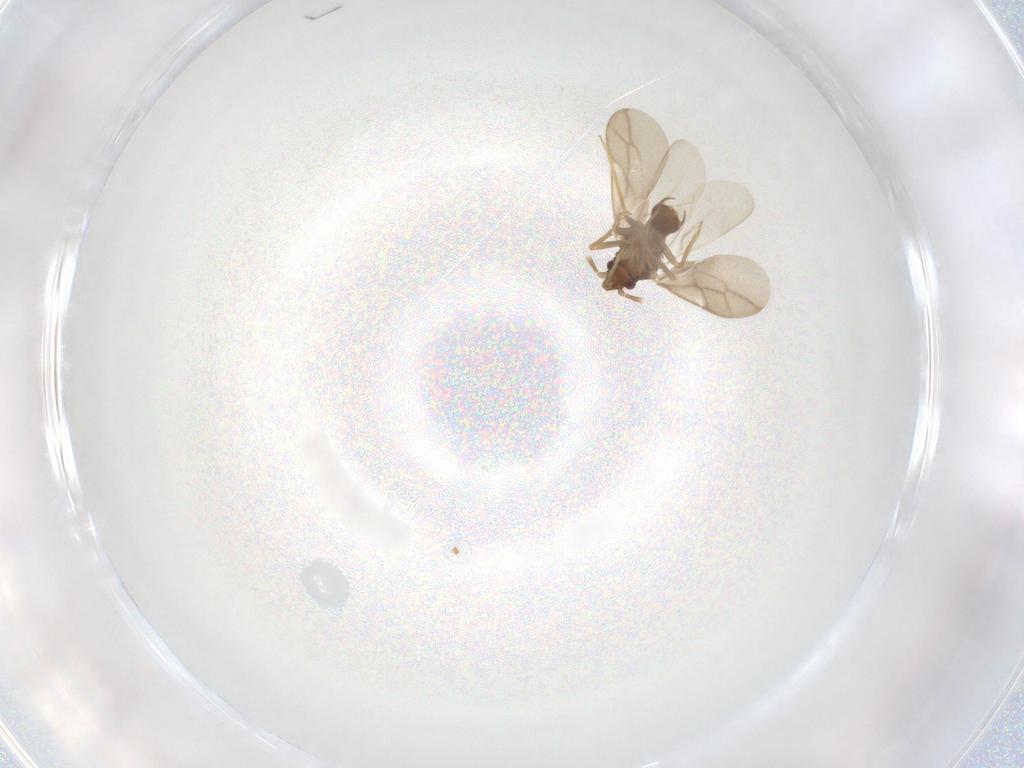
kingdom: Animalia
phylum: Arthropoda
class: Insecta
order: Hemiptera
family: Ceratocombidae
